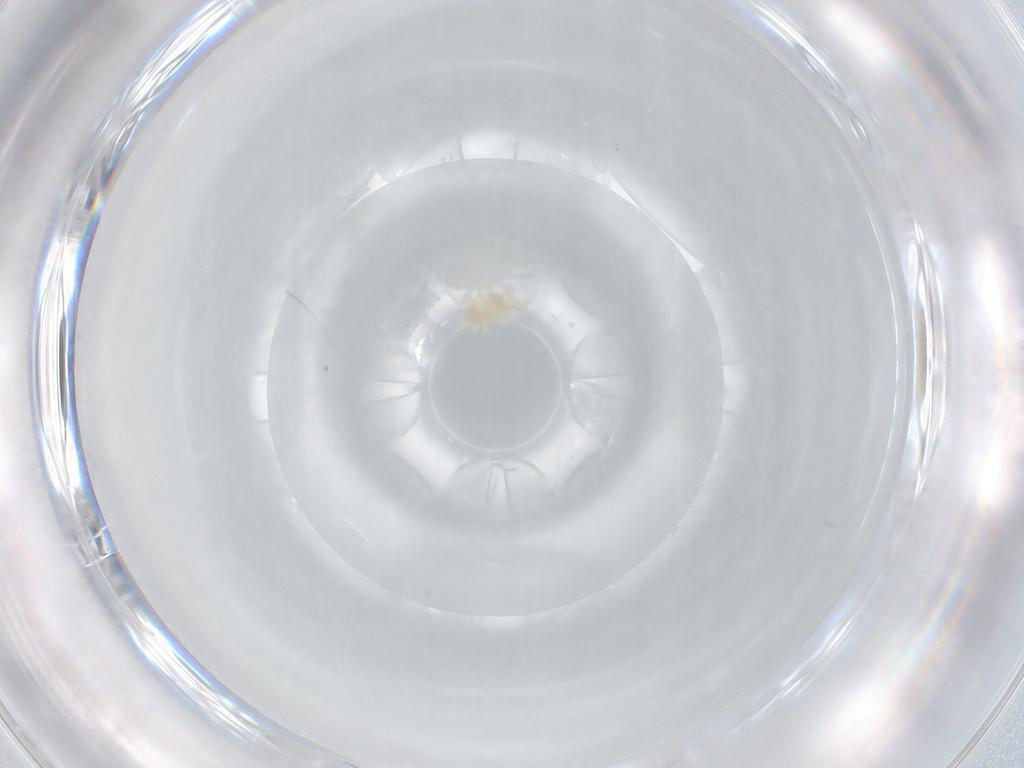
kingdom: Animalia
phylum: Arthropoda
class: Arachnida
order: Trombidiformes
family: Tetranychidae
